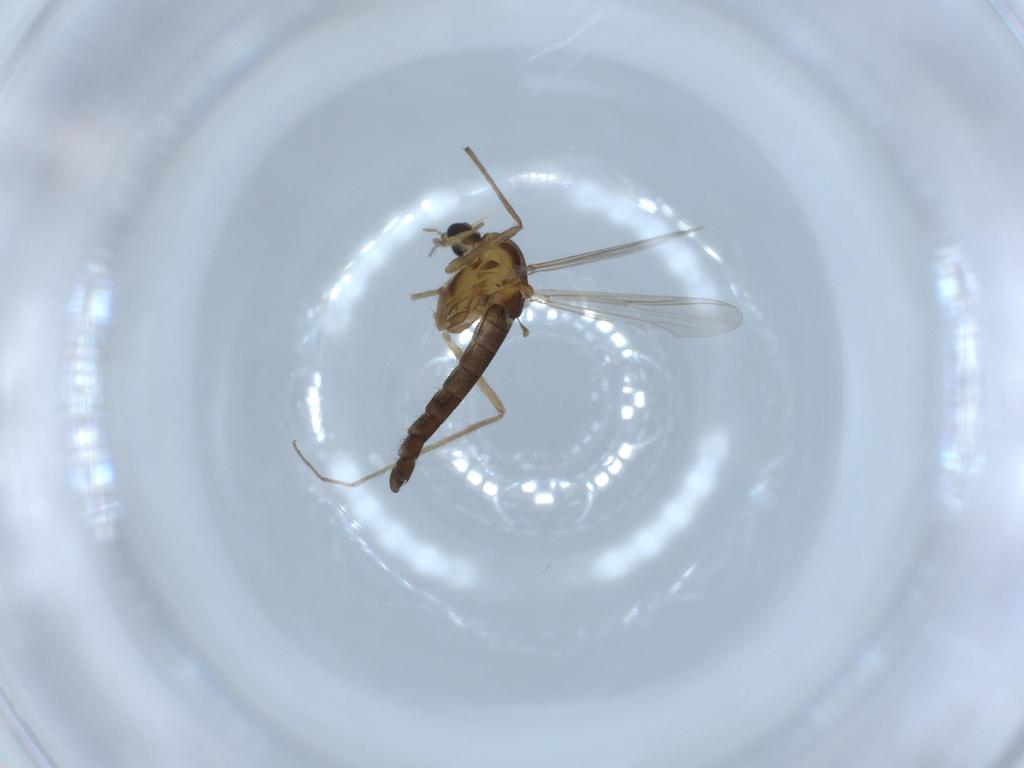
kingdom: Animalia
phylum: Arthropoda
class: Insecta
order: Diptera
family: Chironomidae
